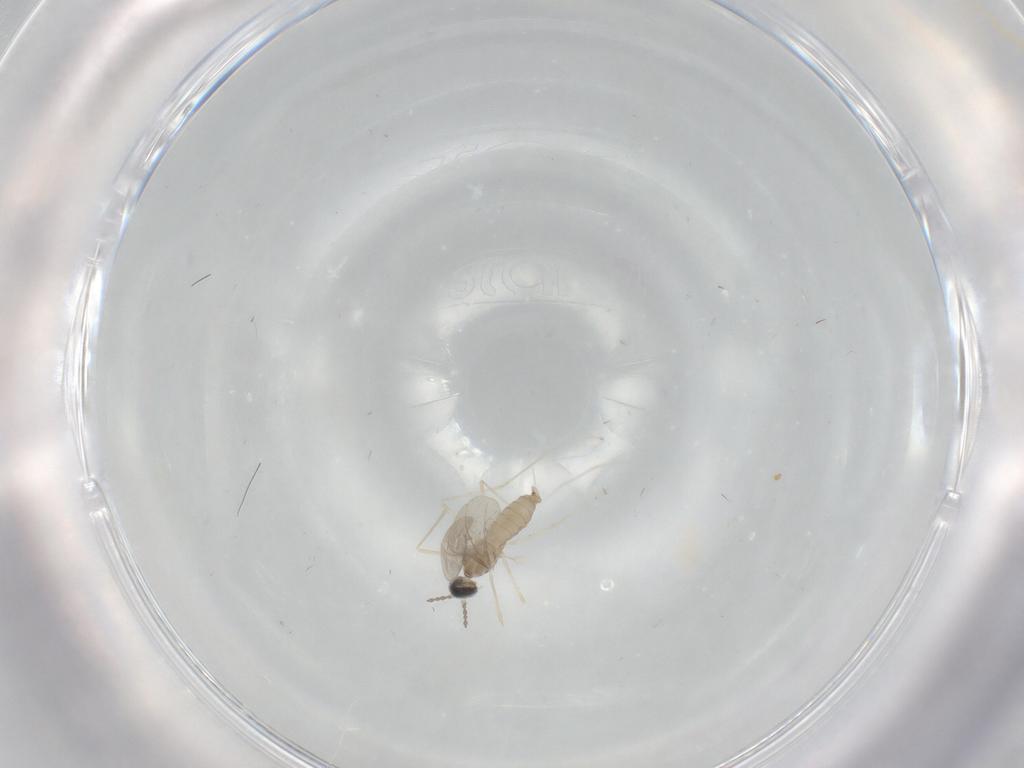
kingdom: Animalia
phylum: Arthropoda
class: Insecta
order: Diptera
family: Cecidomyiidae
